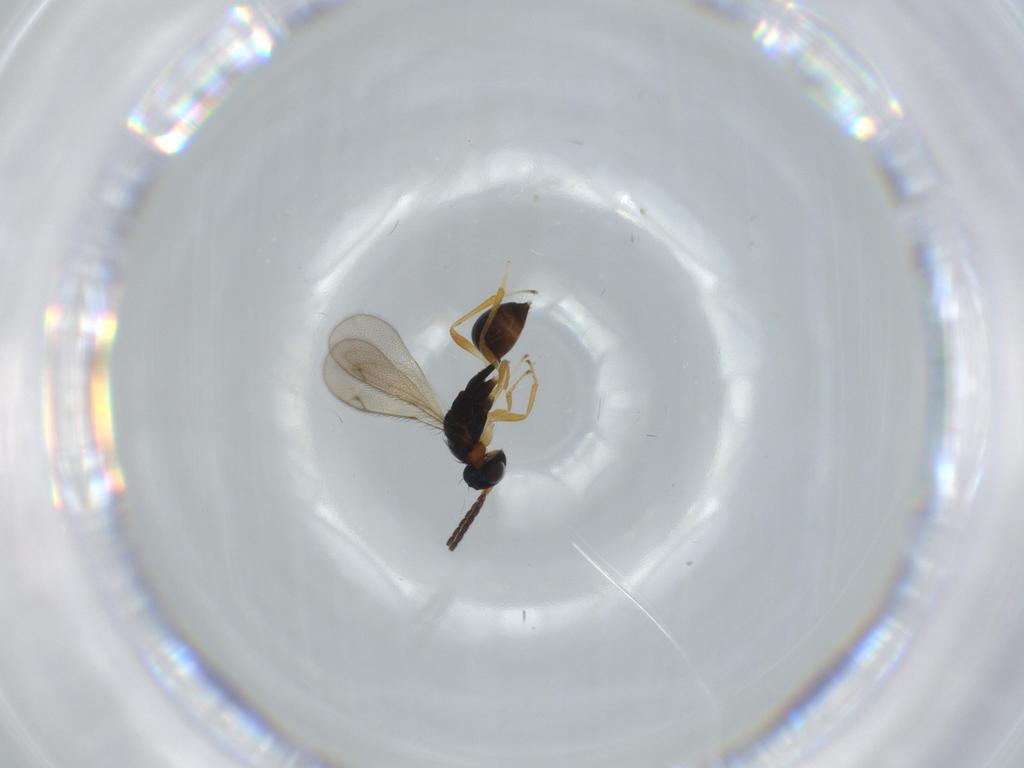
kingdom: Animalia
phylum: Arthropoda
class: Insecta
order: Hymenoptera
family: Diparidae
